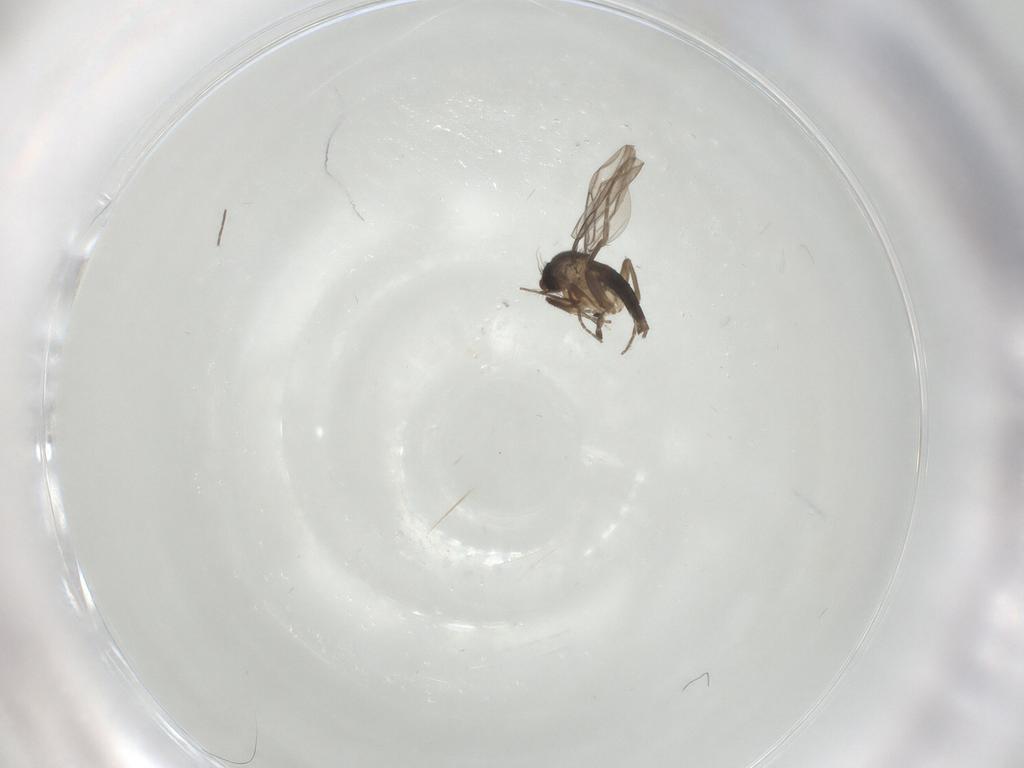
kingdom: Animalia
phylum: Arthropoda
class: Insecta
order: Diptera
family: Chironomidae
